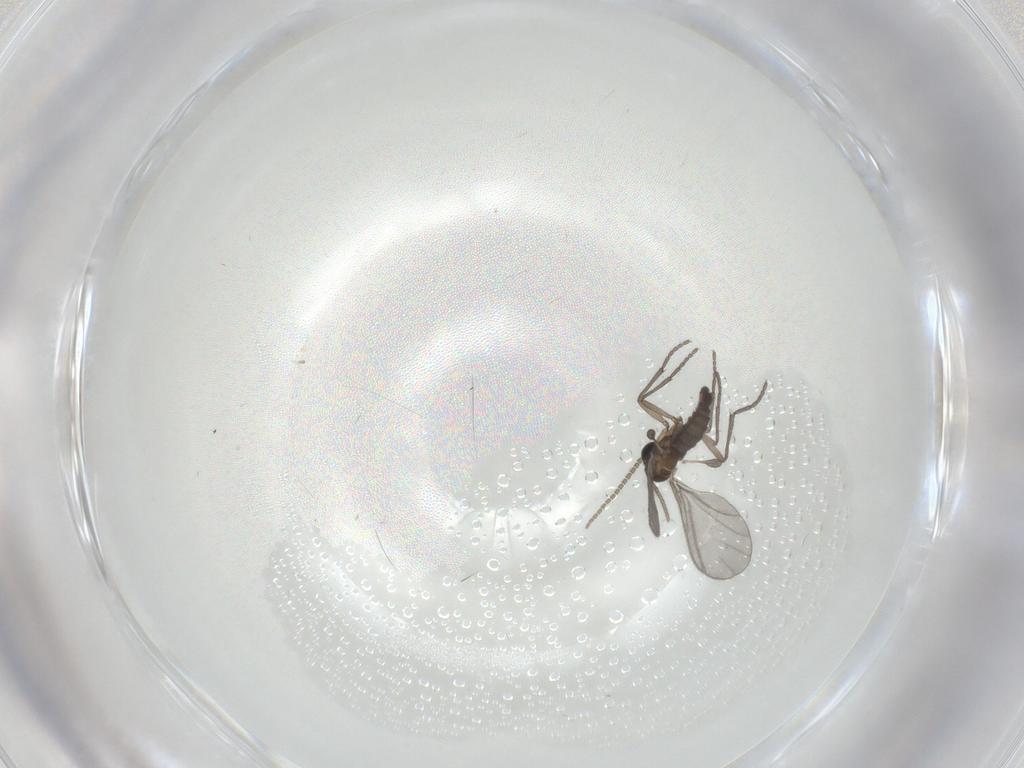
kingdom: Animalia
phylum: Arthropoda
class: Insecta
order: Diptera
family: Sciaridae
